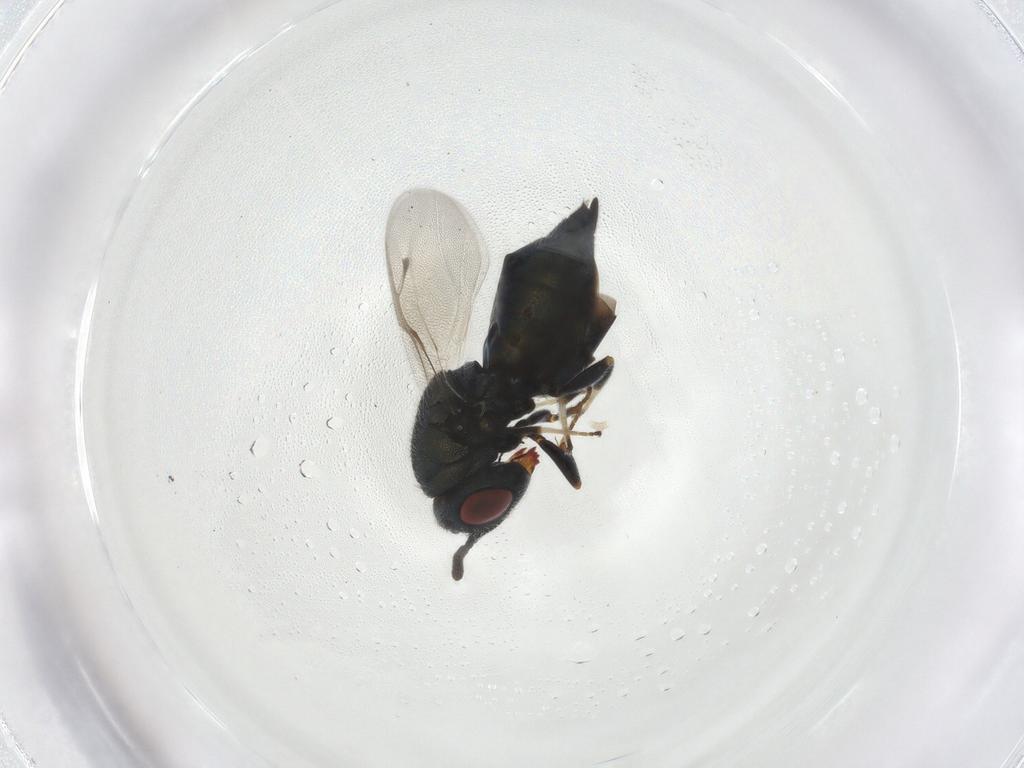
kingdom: Animalia
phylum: Arthropoda
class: Insecta
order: Hymenoptera
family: Pteromalidae
